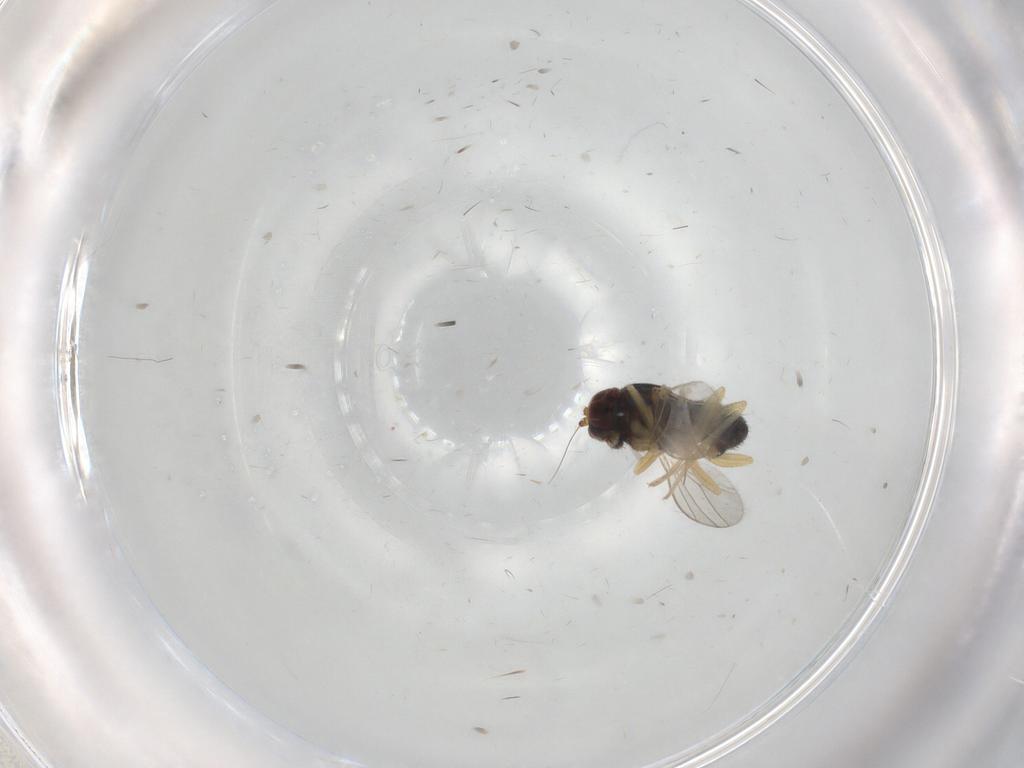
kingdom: Animalia
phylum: Arthropoda
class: Insecta
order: Diptera
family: Dolichopodidae
